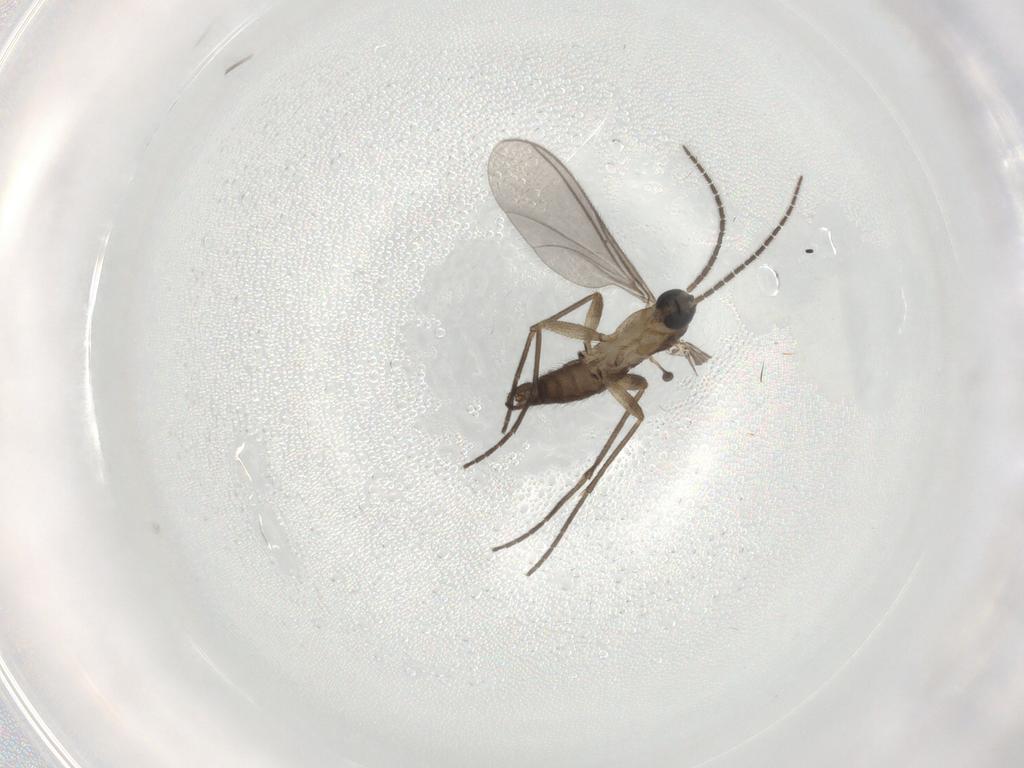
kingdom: Animalia
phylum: Arthropoda
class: Insecta
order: Diptera
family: Sciaridae
